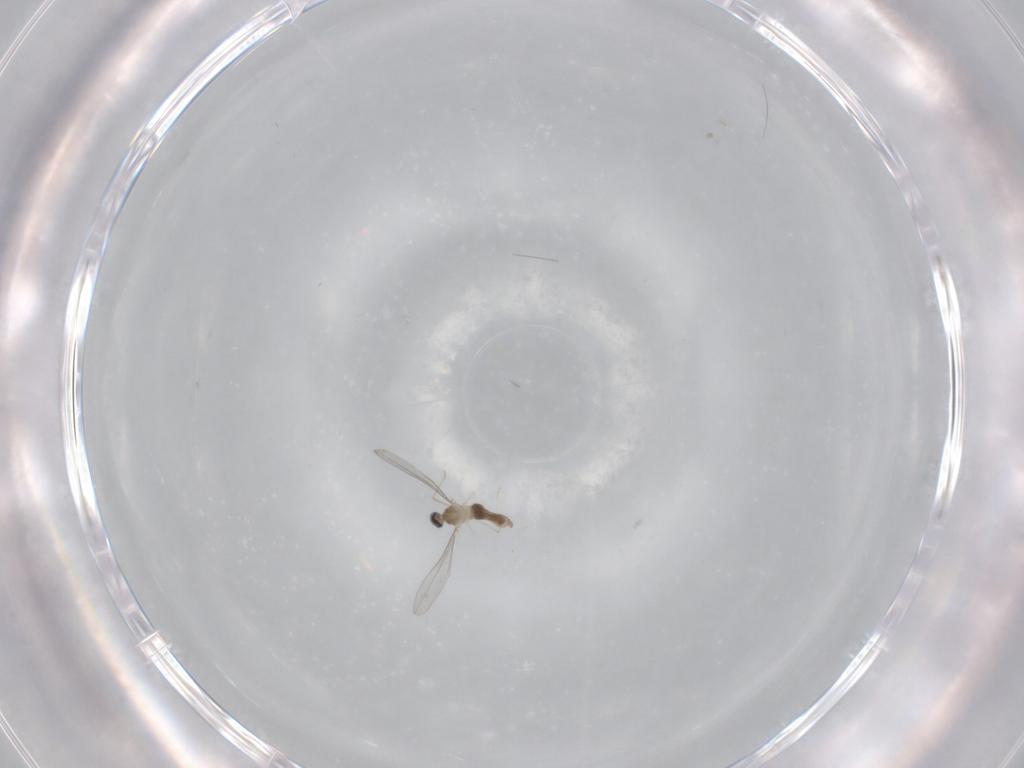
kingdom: Animalia
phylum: Arthropoda
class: Insecta
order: Diptera
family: Cecidomyiidae
